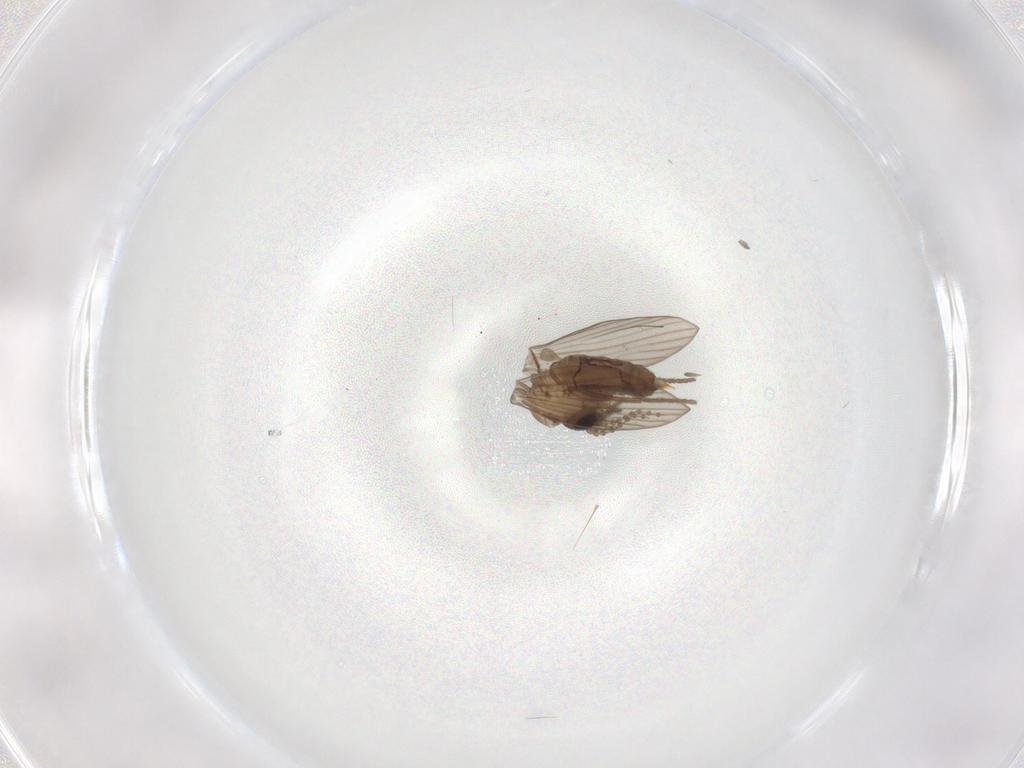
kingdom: Animalia
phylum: Arthropoda
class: Insecta
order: Diptera
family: Psychodidae
